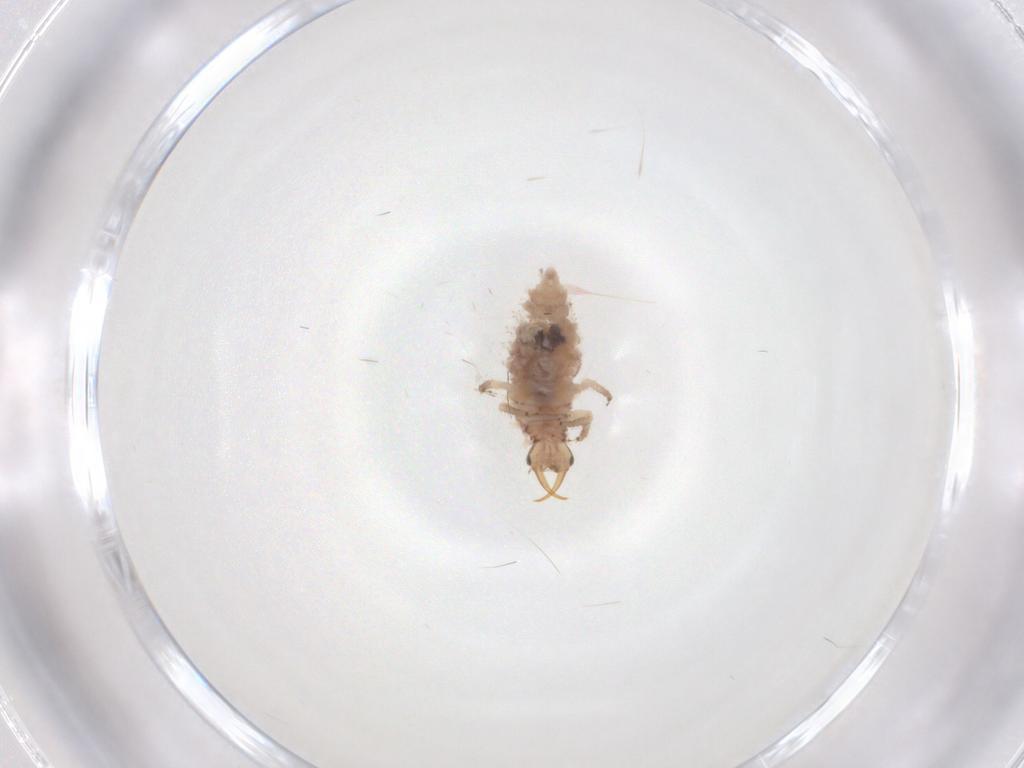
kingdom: Animalia
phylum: Arthropoda
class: Insecta
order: Neuroptera
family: Chrysopidae
